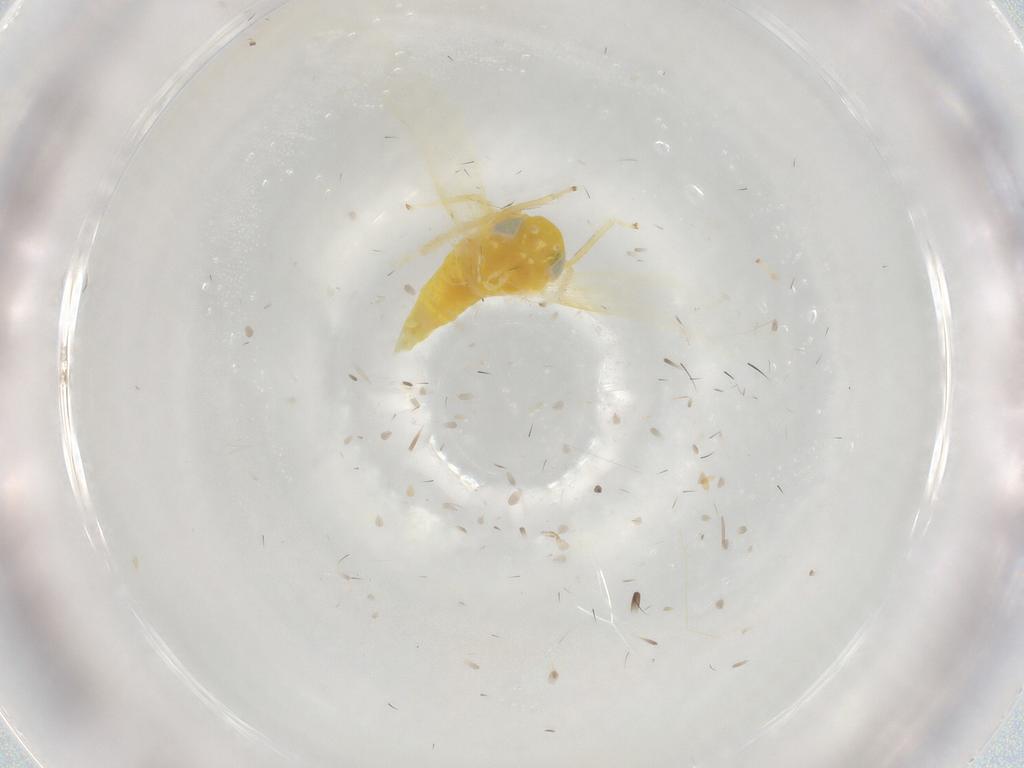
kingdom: Animalia
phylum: Arthropoda
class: Insecta
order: Hemiptera
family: Cicadellidae
